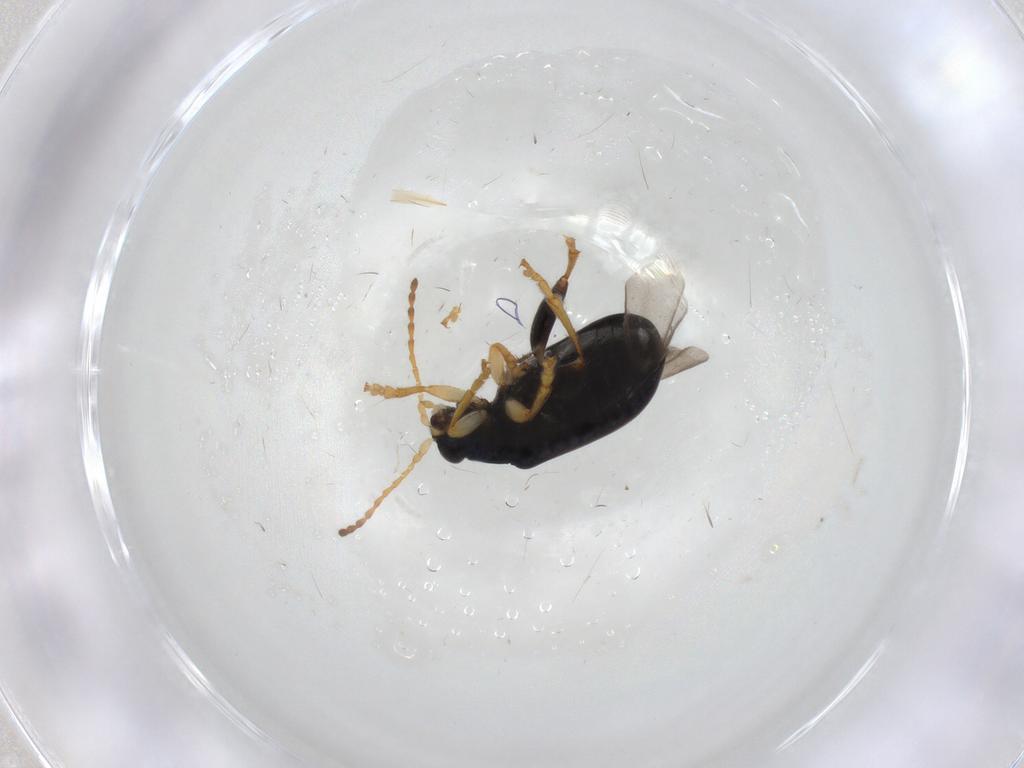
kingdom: Animalia
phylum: Arthropoda
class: Insecta
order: Coleoptera
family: Chrysomelidae
